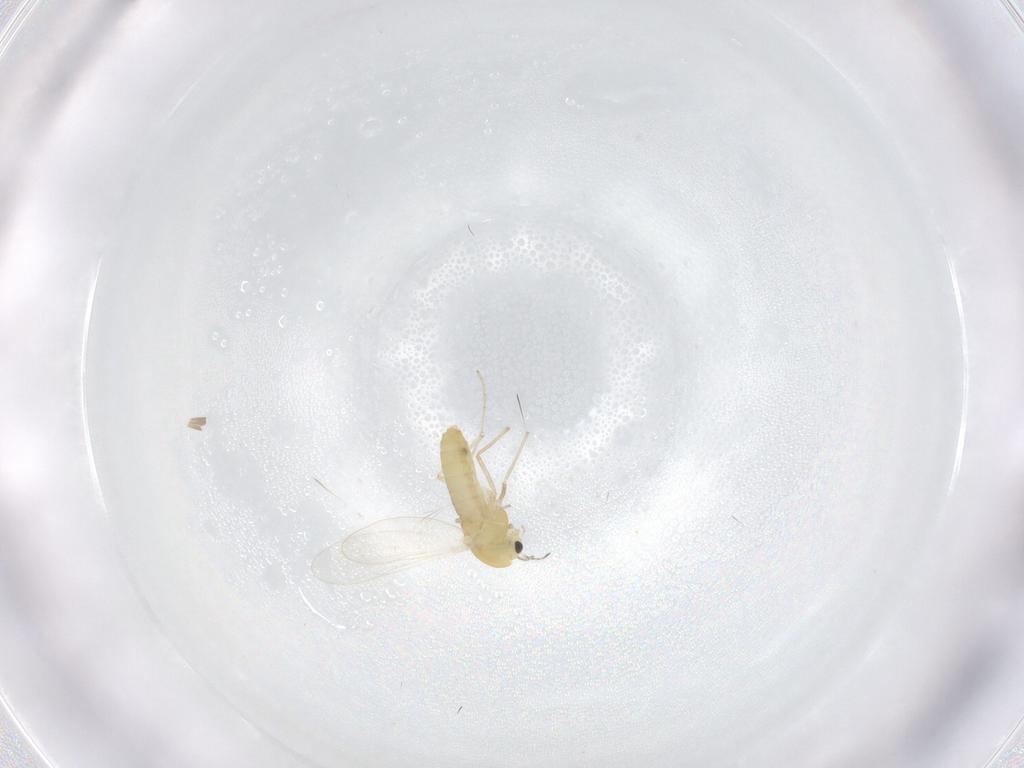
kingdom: Animalia
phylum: Arthropoda
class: Insecta
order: Diptera
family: Chironomidae
